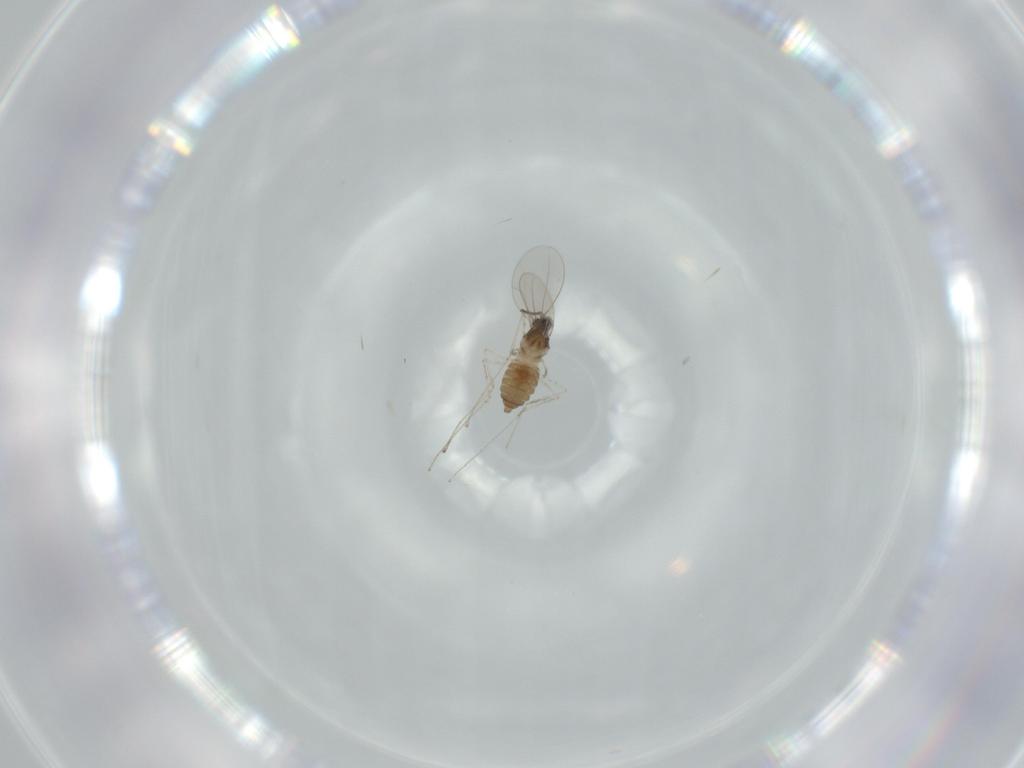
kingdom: Animalia
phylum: Arthropoda
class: Insecta
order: Diptera
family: Cecidomyiidae
